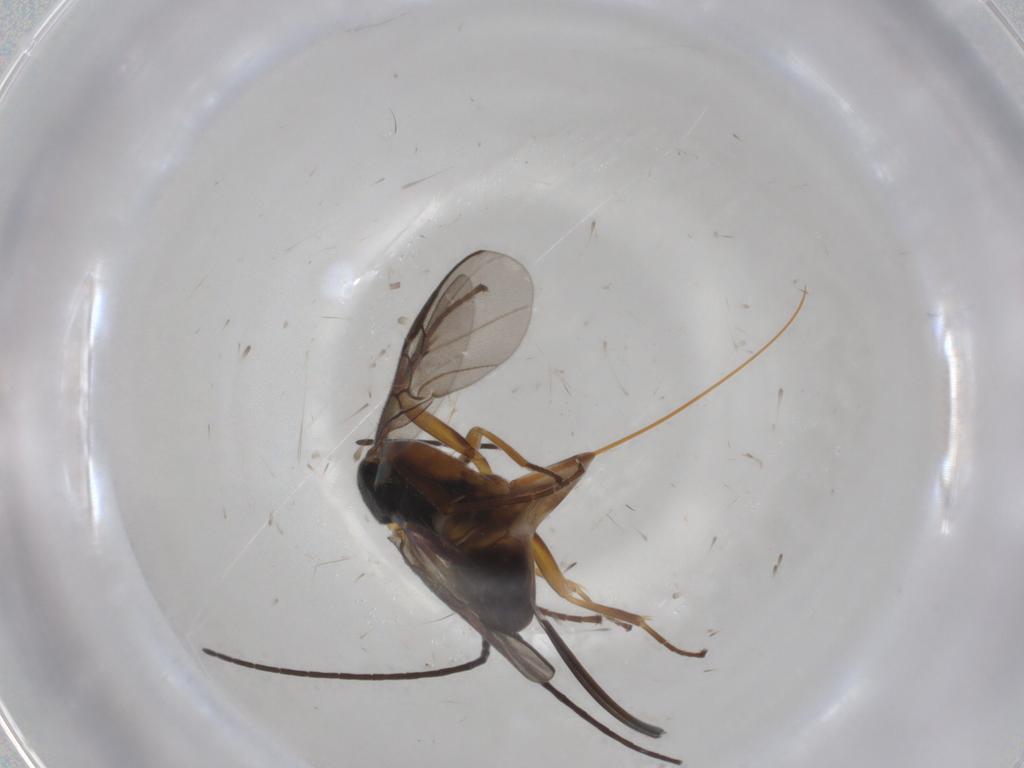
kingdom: Animalia
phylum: Arthropoda
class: Insecta
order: Hymenoptera
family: Braconidae
